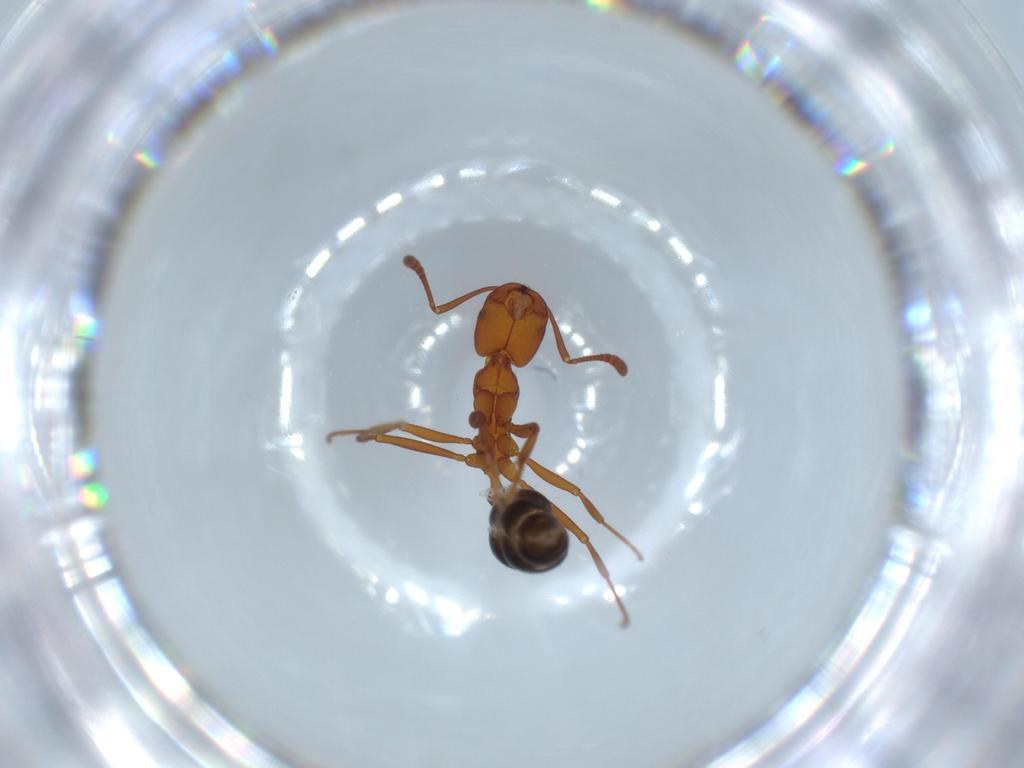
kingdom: Animalia
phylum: Arthropoda
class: Insecta
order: Hymenoptera
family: Formicidae
